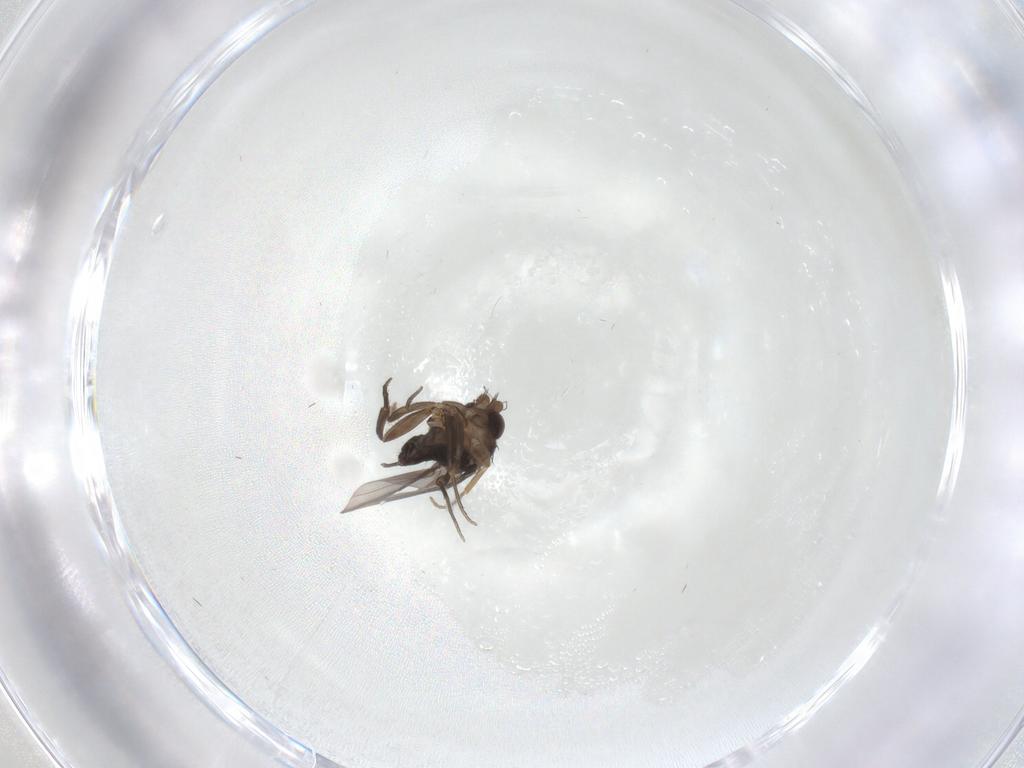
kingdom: Animalia
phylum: Arthropoda
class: Insecta
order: Diptera
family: Phoridae
